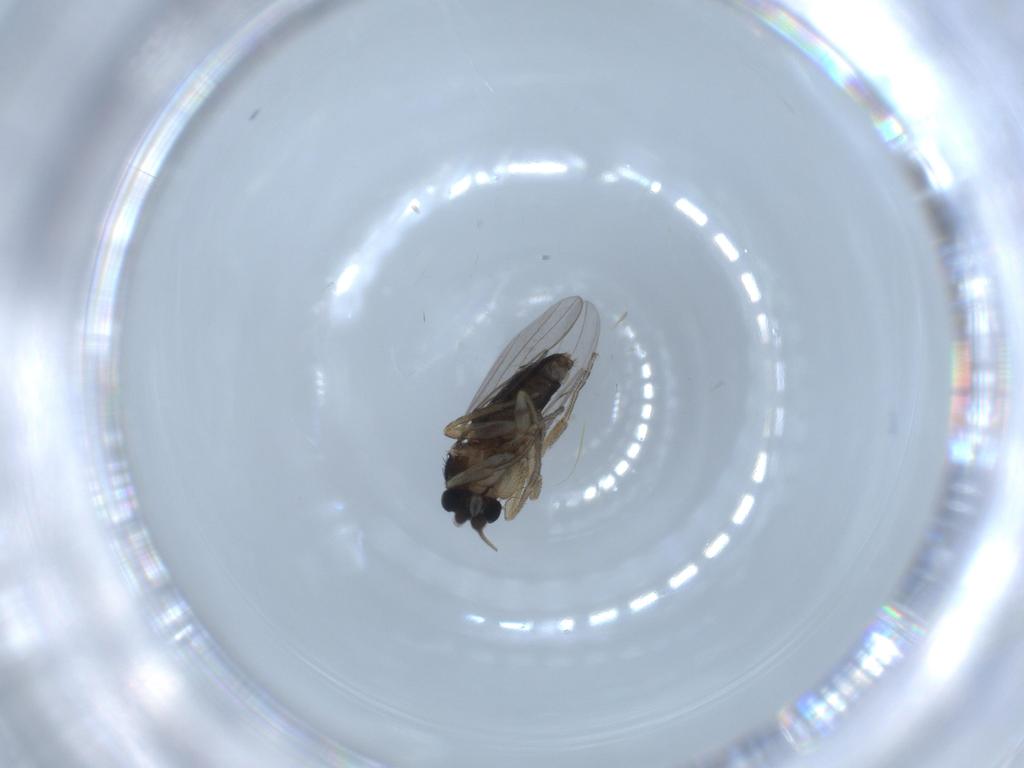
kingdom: Animalia
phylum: Arthropoda
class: Insecta
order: Diptera
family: Phoridae
